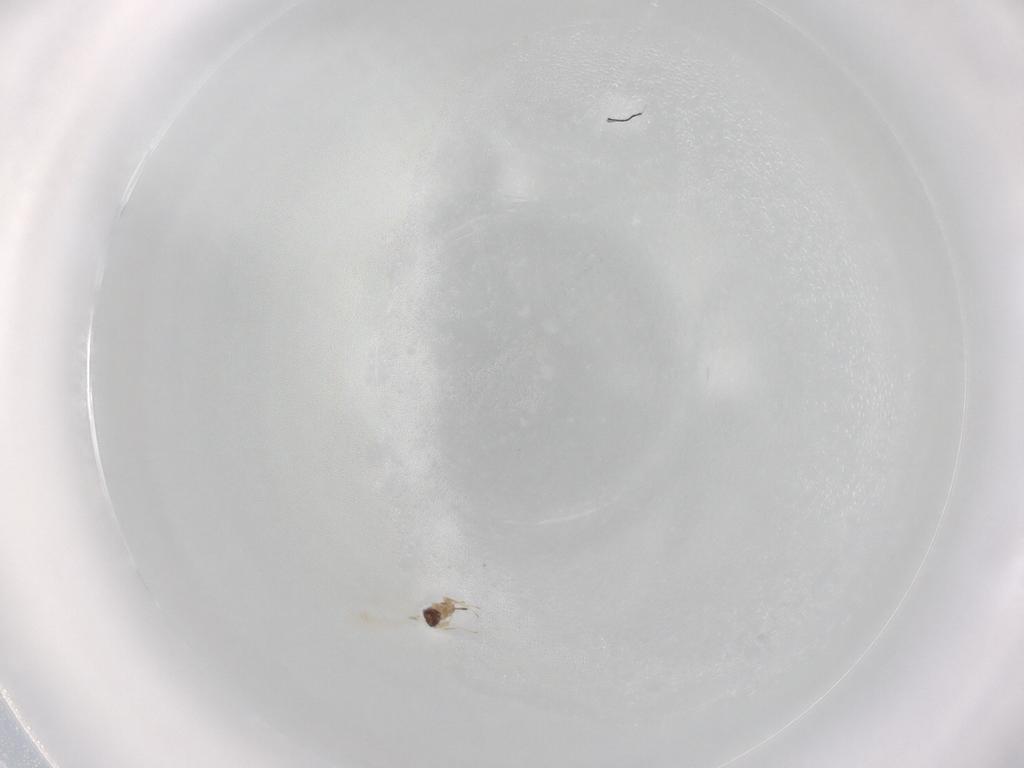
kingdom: Animalia
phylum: Arthropoda
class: Insecta
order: Hymenoptera
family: Mymaridae
